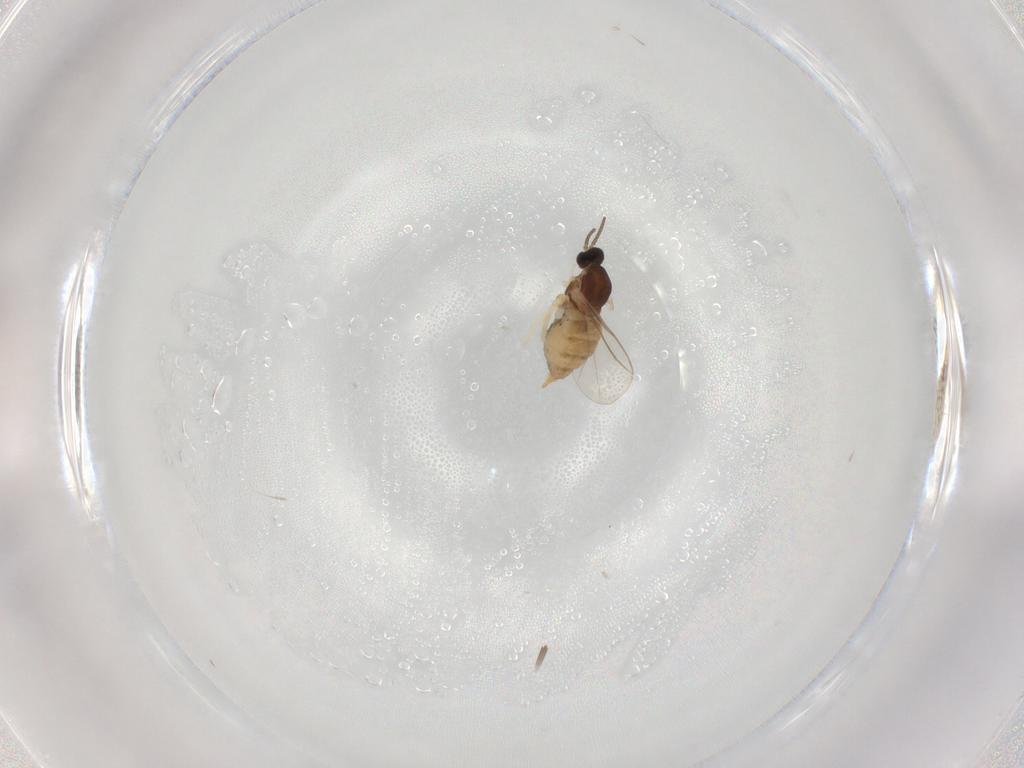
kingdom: Animalia
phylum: Arthropoda
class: Insecta
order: Diptera
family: Cecidomyiidae
